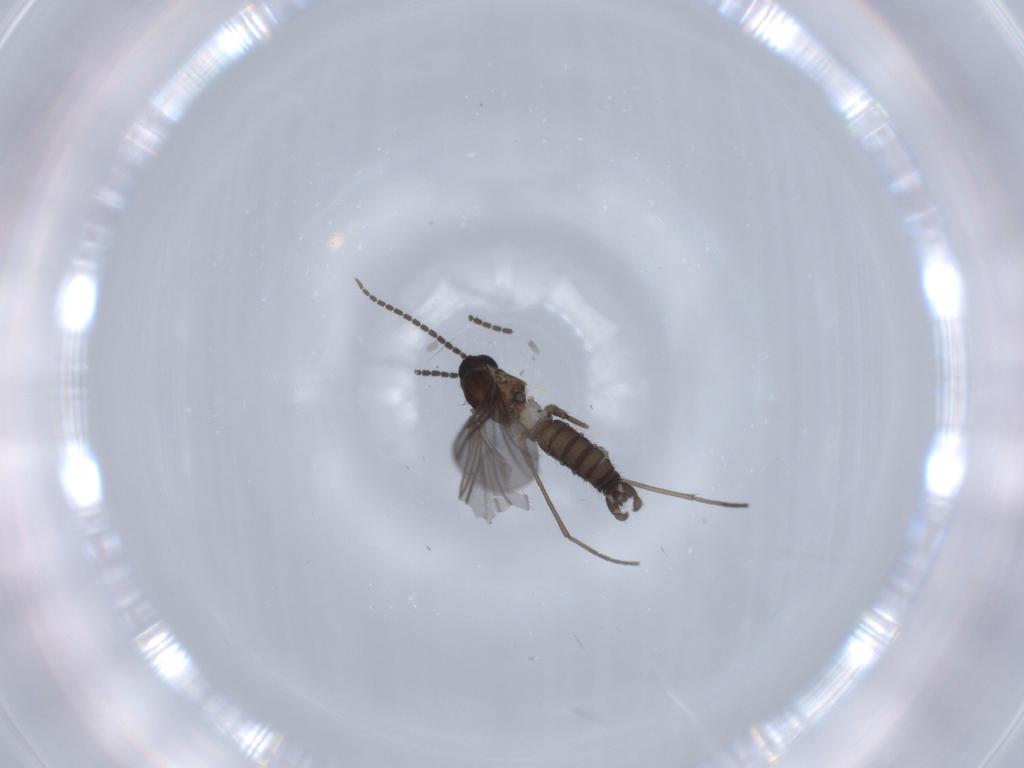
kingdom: Animalia
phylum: Arthropoda
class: Insecta
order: Diptera
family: Sciaridae
